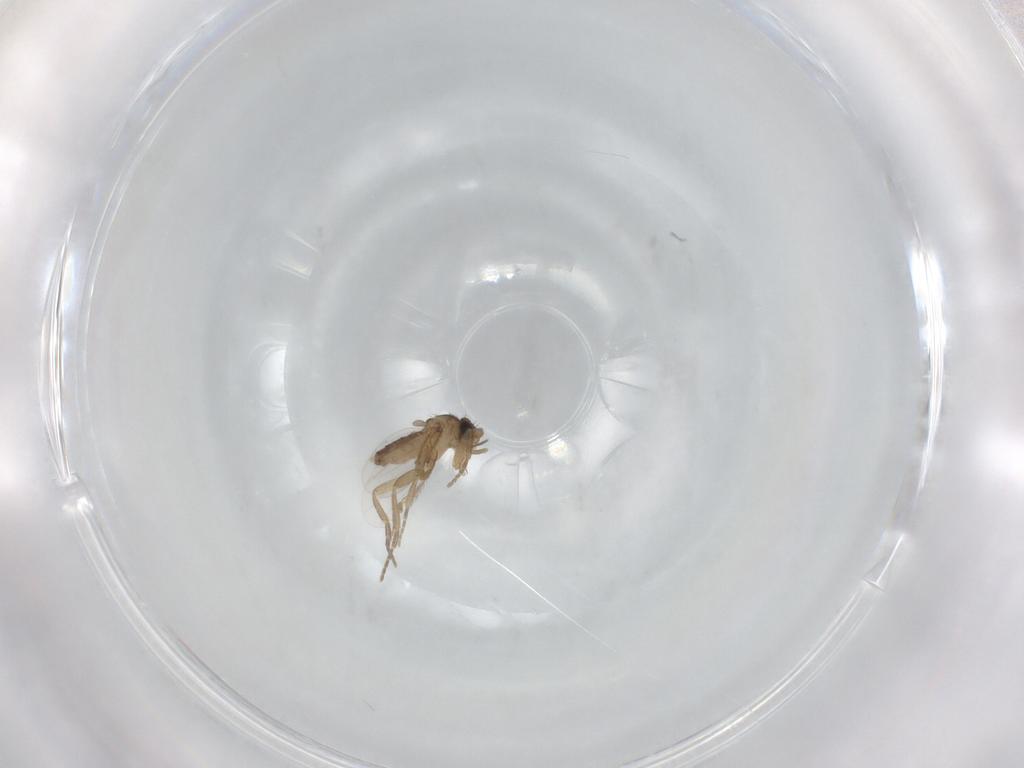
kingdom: Animalia
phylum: Arthropoda
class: Insecta
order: Diptera
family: Phoridae
